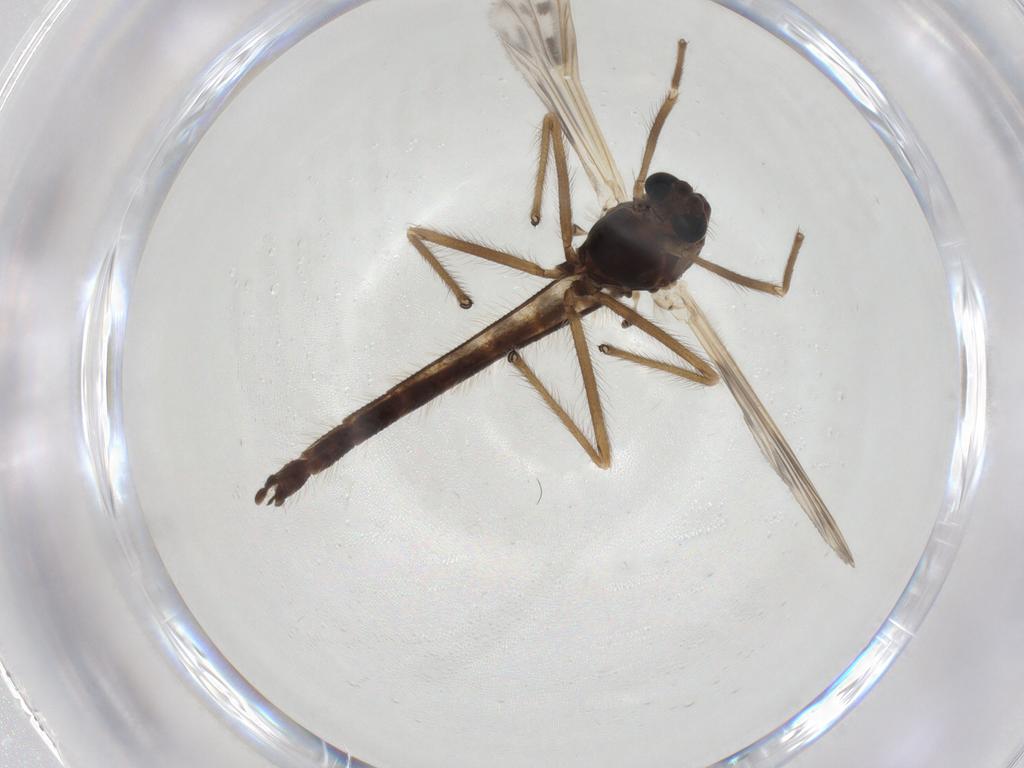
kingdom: Animalia
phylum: Arthropoda
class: Insecta
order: Diptera
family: Chironomidae
